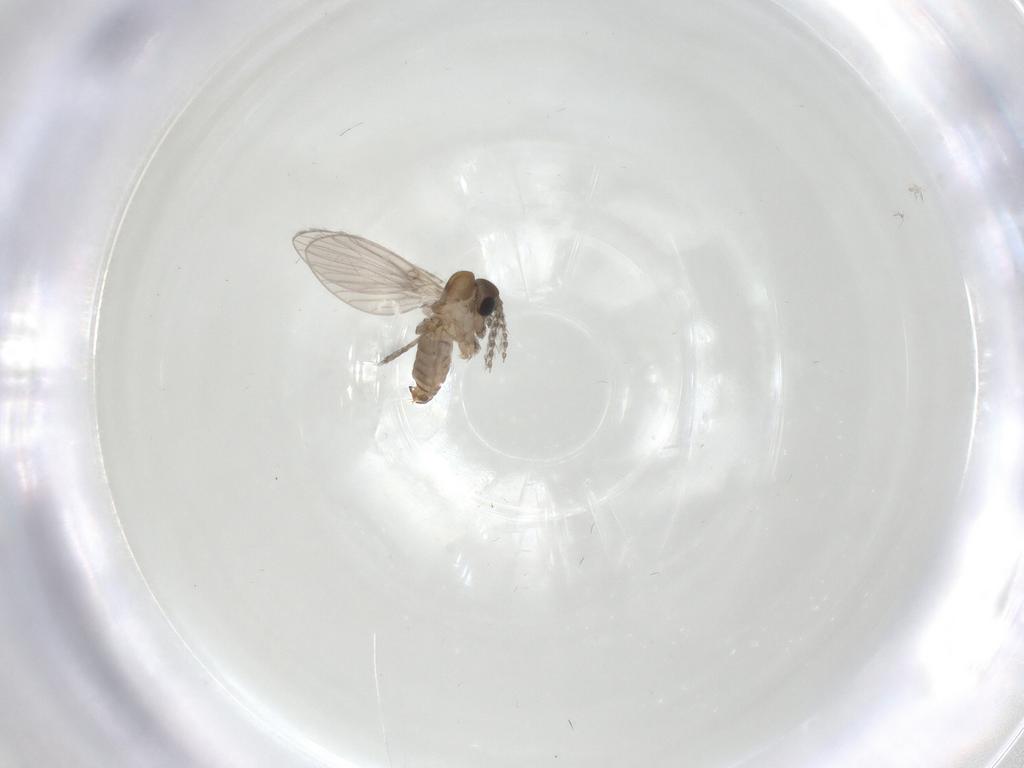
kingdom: Animalia
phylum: Arthropoda
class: Insecta
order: Diptera
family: Psychodidae
